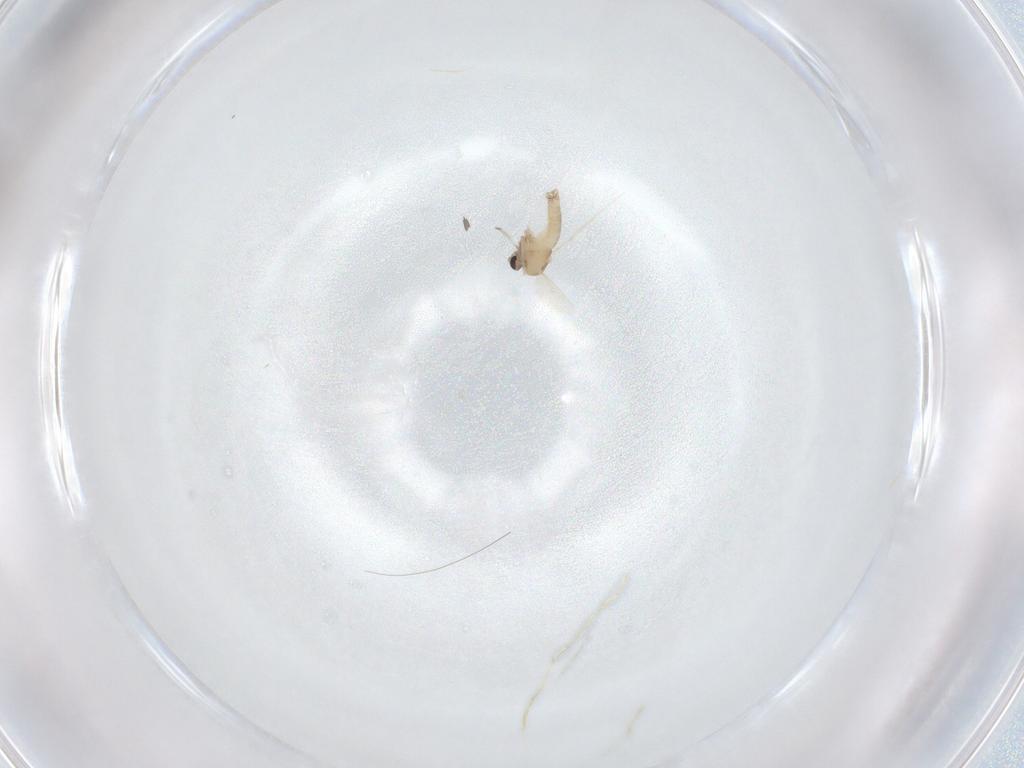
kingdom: Animalia
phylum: Arthropoda
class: Insecta
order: Diptera
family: Chironomidae
